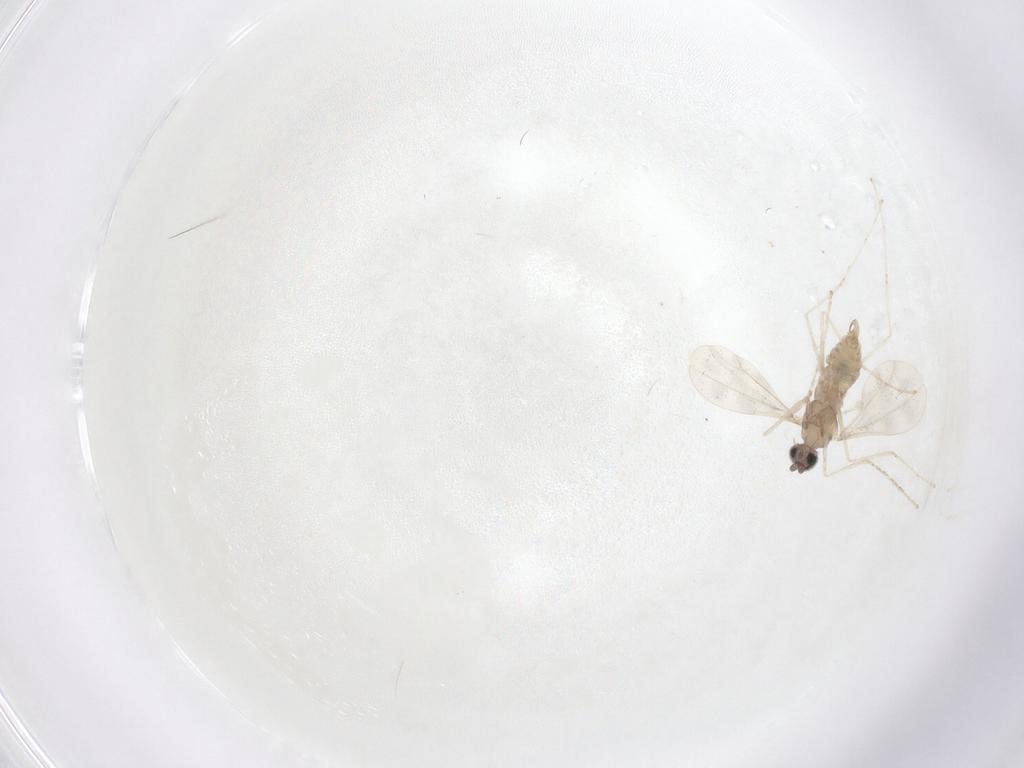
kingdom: Animalia
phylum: Arthropoda
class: Insecta
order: Diptera
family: Cecidomyiidae
